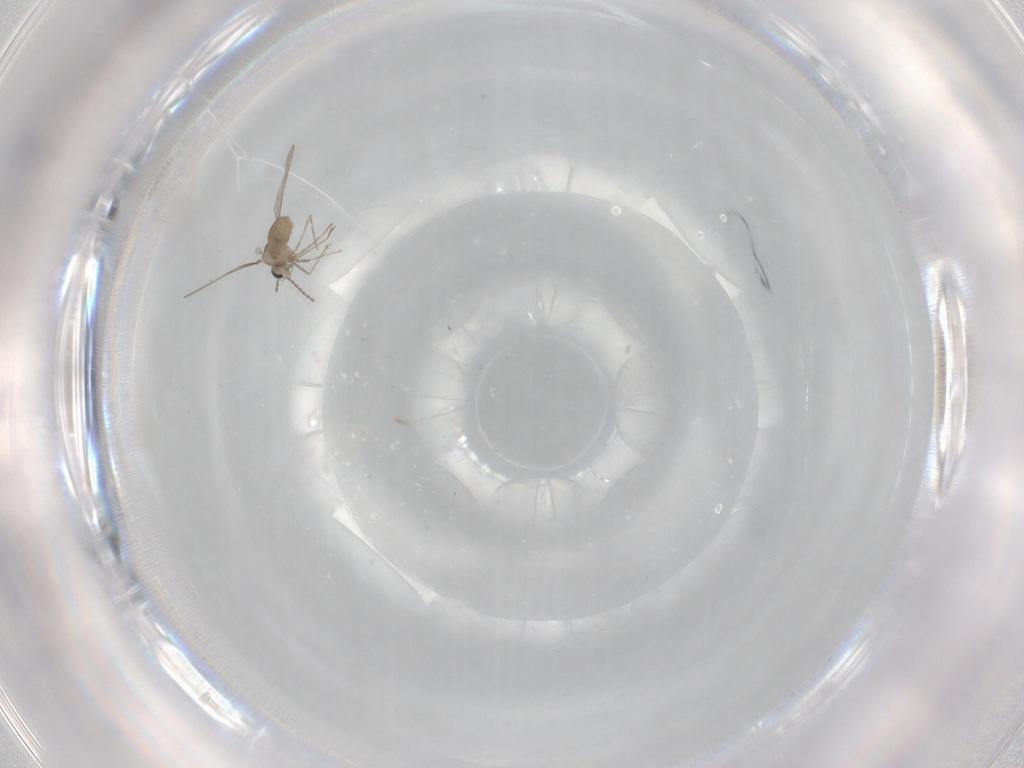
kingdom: Animalia
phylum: Arthropoda
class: Insecta
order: Diptera
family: Cecidomyiidae
